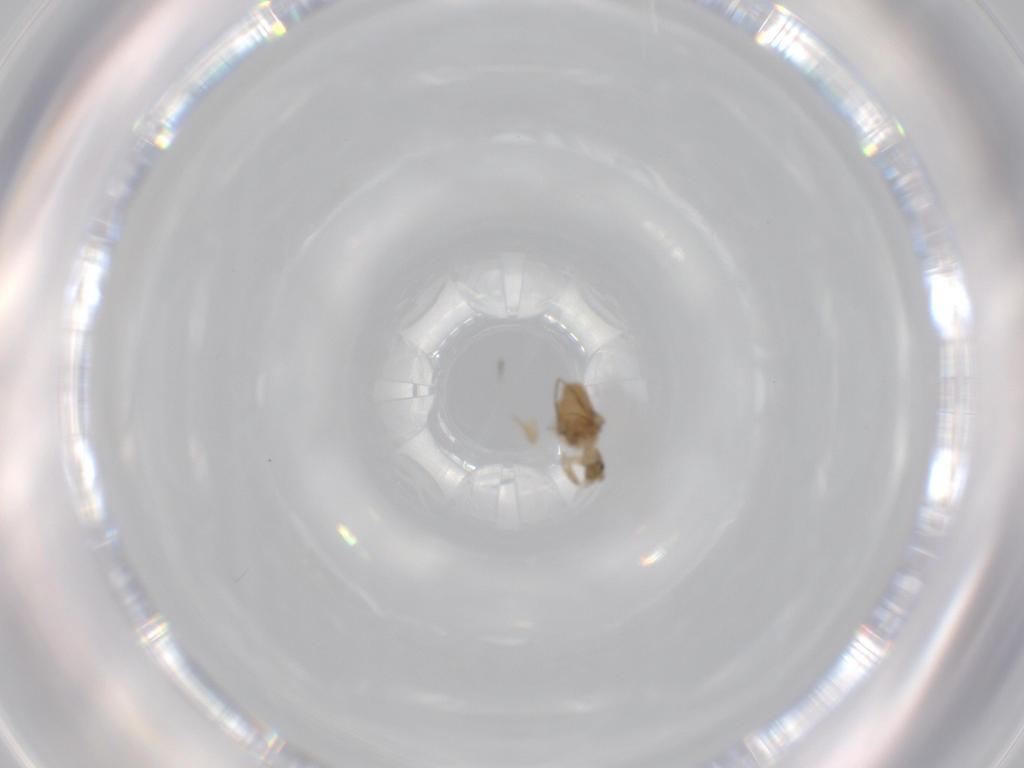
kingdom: Animalia
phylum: Arthropoda
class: Insecta
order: Diptera
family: Phoridae
